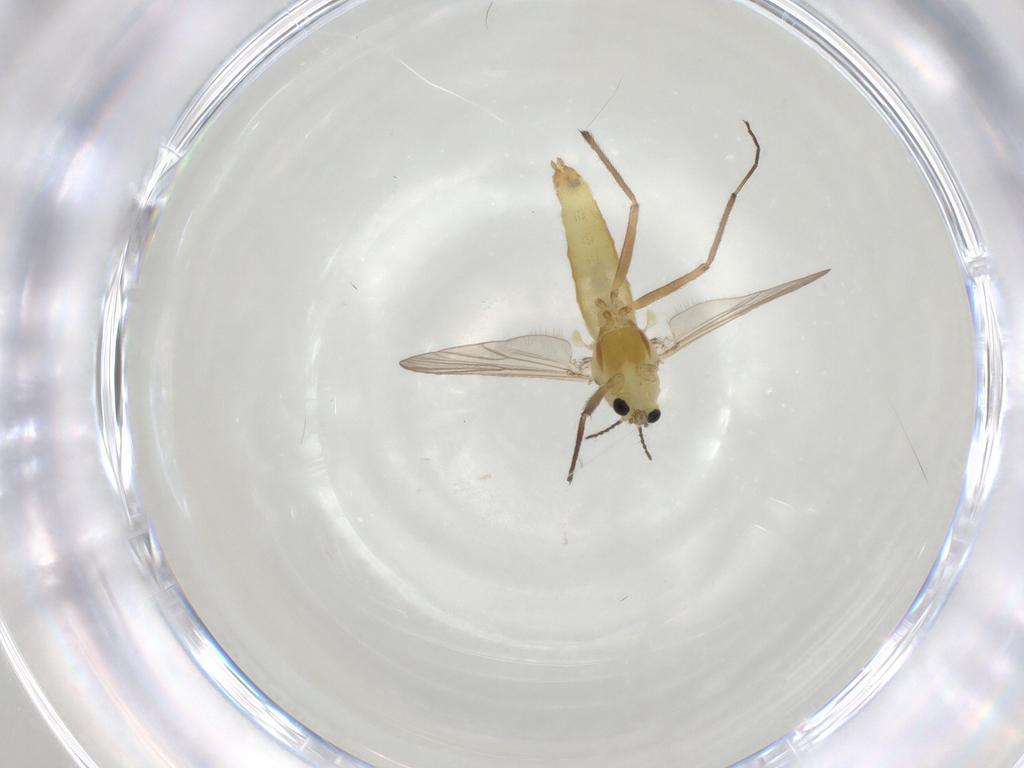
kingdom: Animalia
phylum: Arthropoda
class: Insecta
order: Diptera
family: Chironomidae
